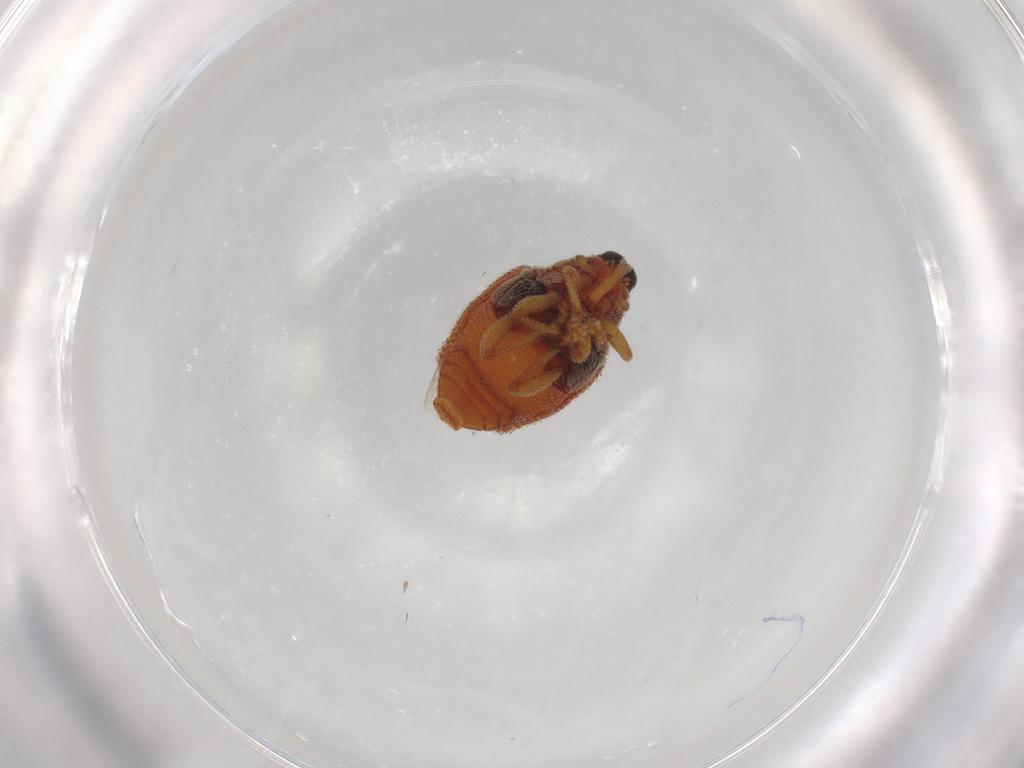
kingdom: Animalia
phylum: Arthropoda
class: Insecta
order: Coleoptera
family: Curculionidae
